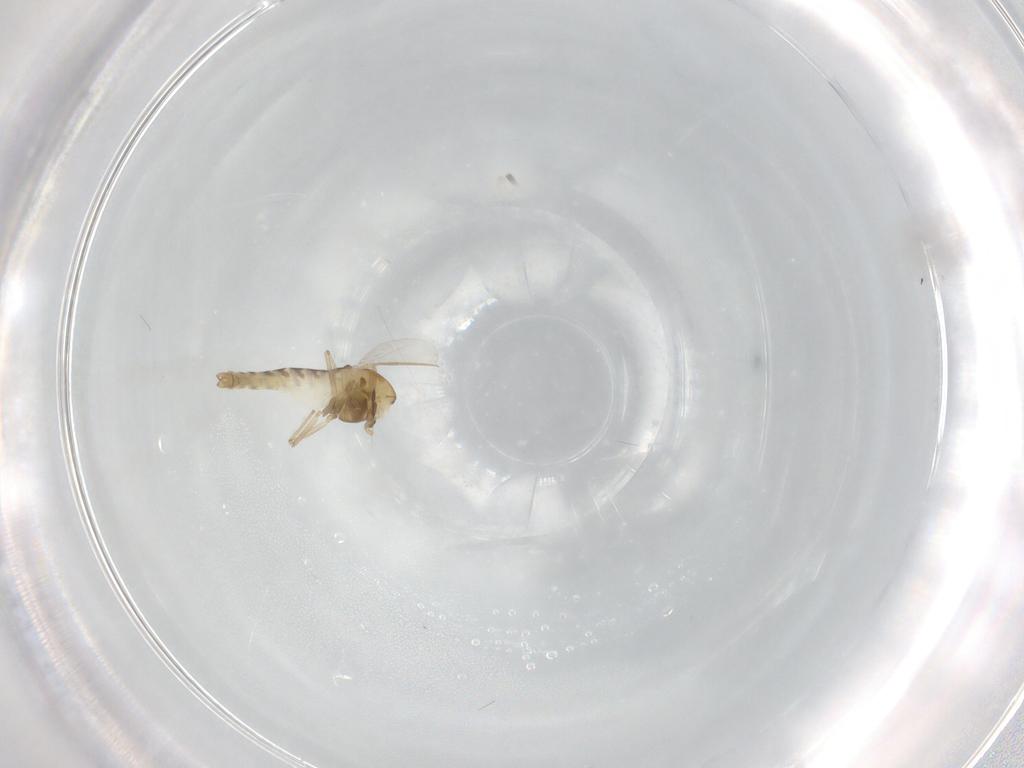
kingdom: Animalia
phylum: Arthropoda
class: Insecta
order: Diptera
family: Chironomidae
